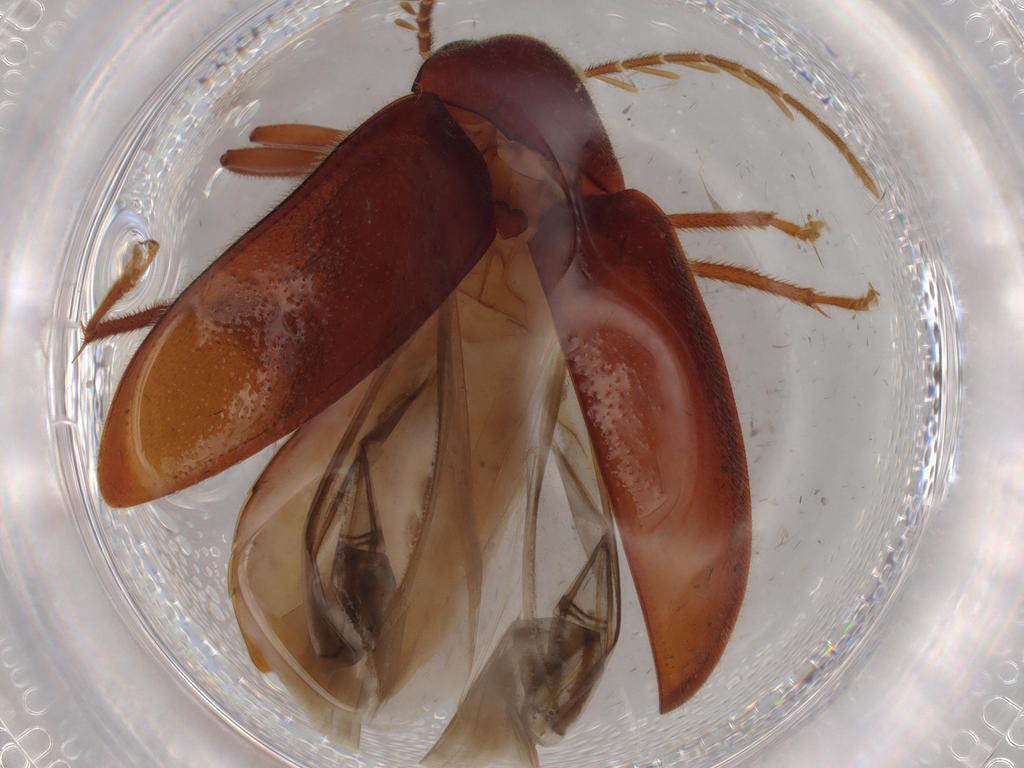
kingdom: Animalia
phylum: Arthropoda
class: Insecta
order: Coleoptera
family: Ptilodactylidae
